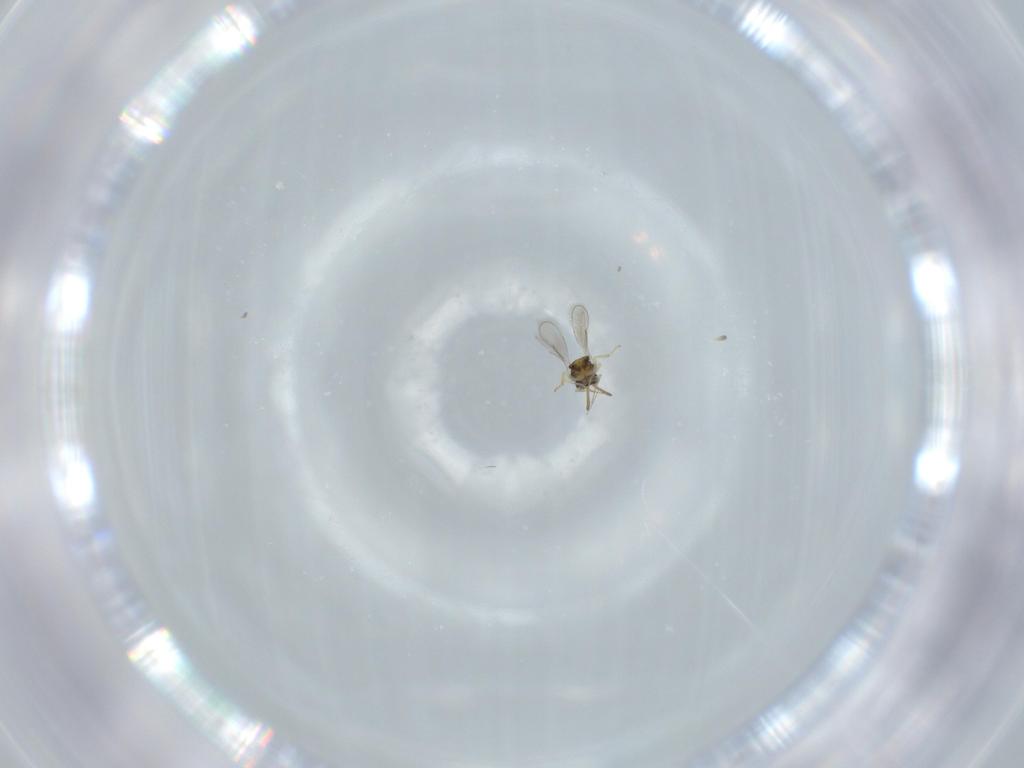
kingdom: Animalia
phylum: Arthropoda
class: Insecta
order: Hymenoptera
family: Aphelinidae
